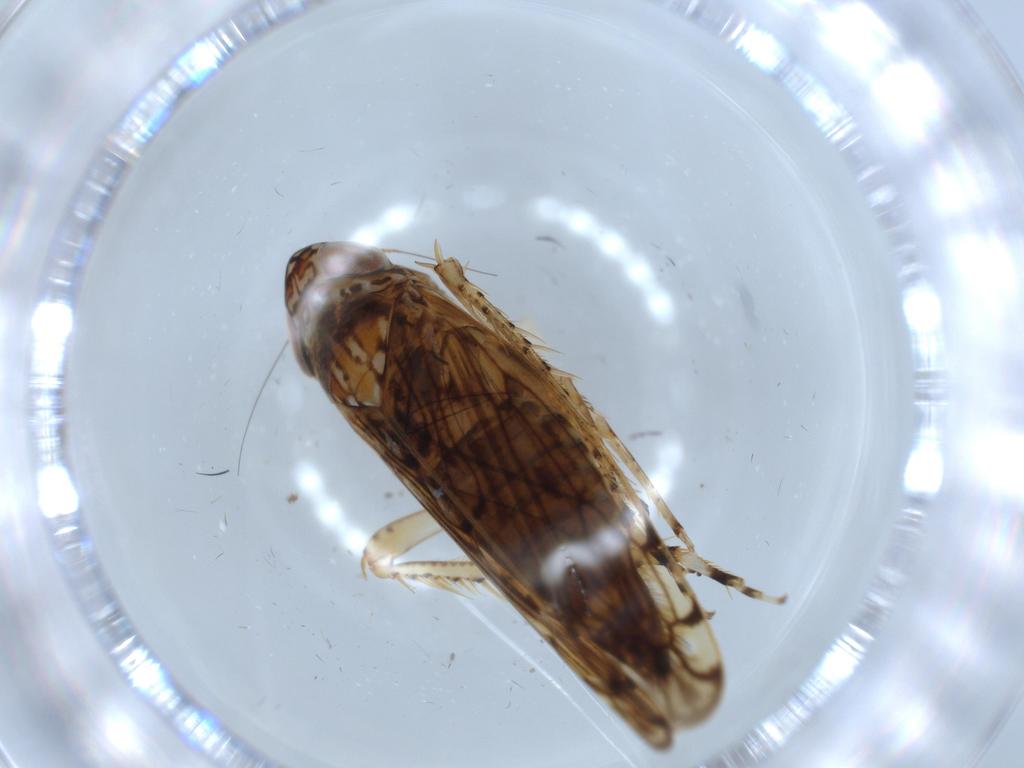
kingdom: Animalia
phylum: Arthropoda
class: Insecta
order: Hemiptera
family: Cicadellidae
